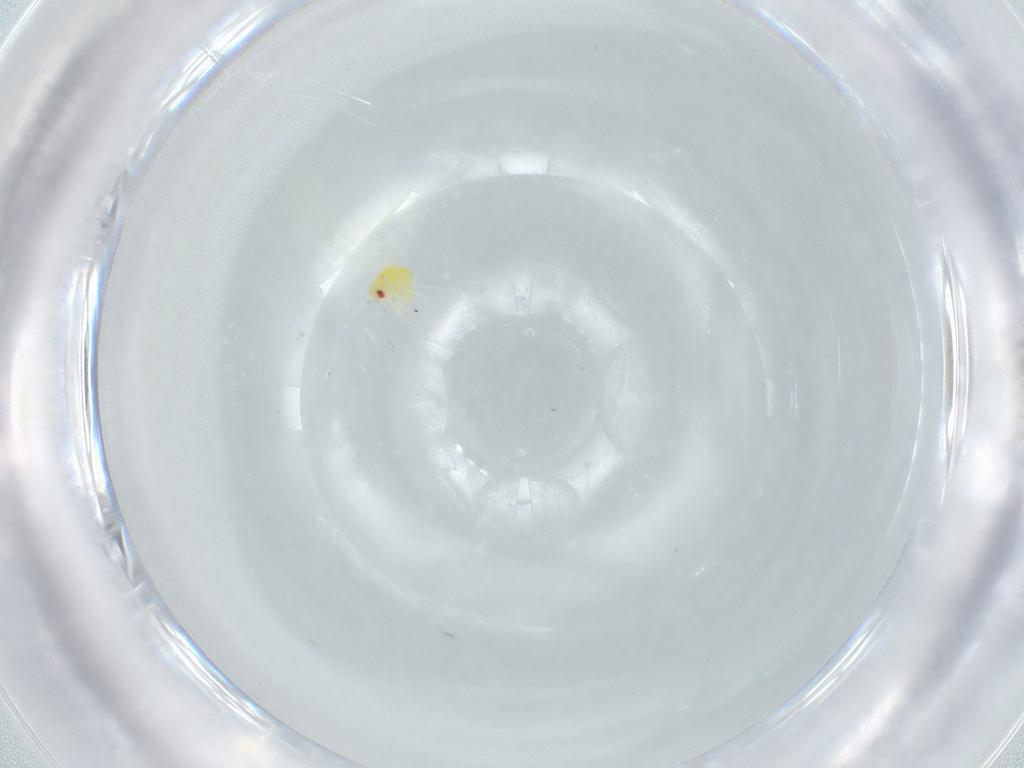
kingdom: Animalia
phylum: Arthropoda
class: Insecta
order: Hemiptera
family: Aleyrodidae
